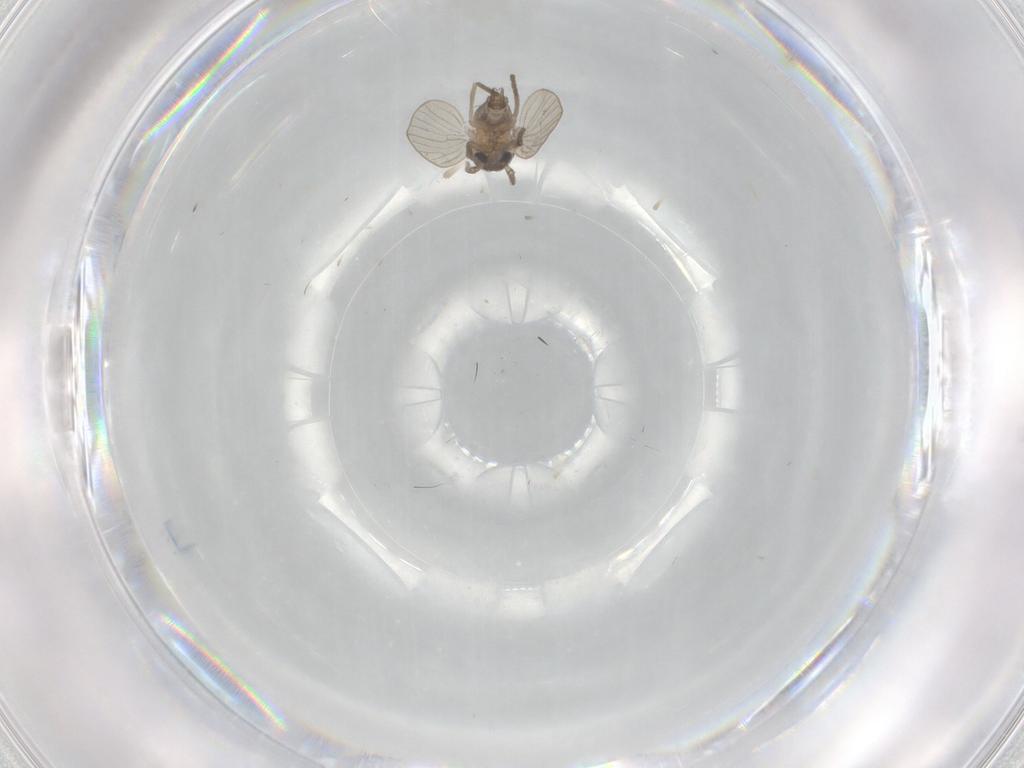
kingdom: Animalia
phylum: Arthropoda
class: Insecta
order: Diptera
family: Psychodidae
